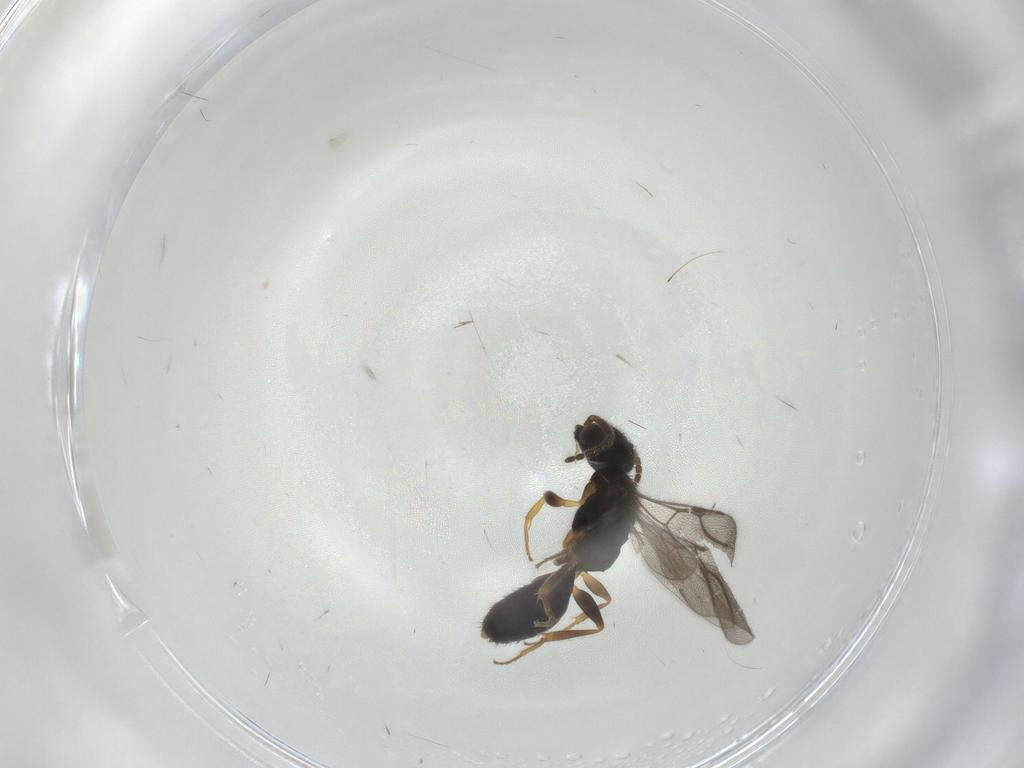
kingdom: Animalia
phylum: Arthropoda
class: Insecta
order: Hymenoptera
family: Bethylidae
